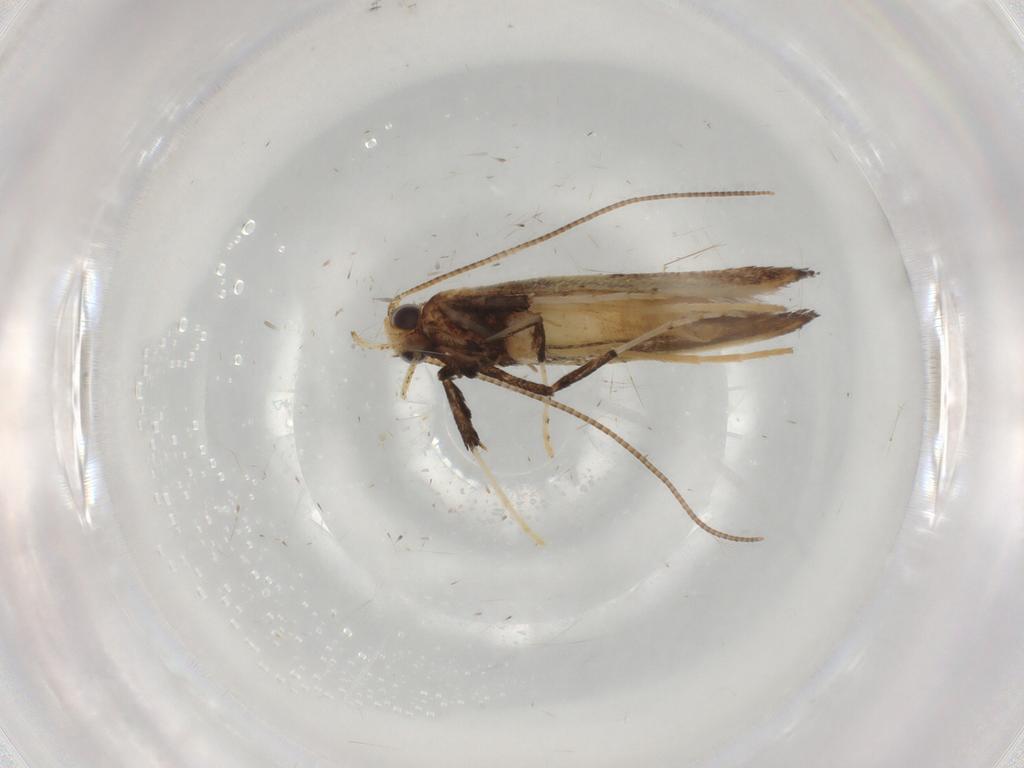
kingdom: Animalia
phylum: Arthropoda
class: Insecta
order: Lepidoptera
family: Gracillariidae
